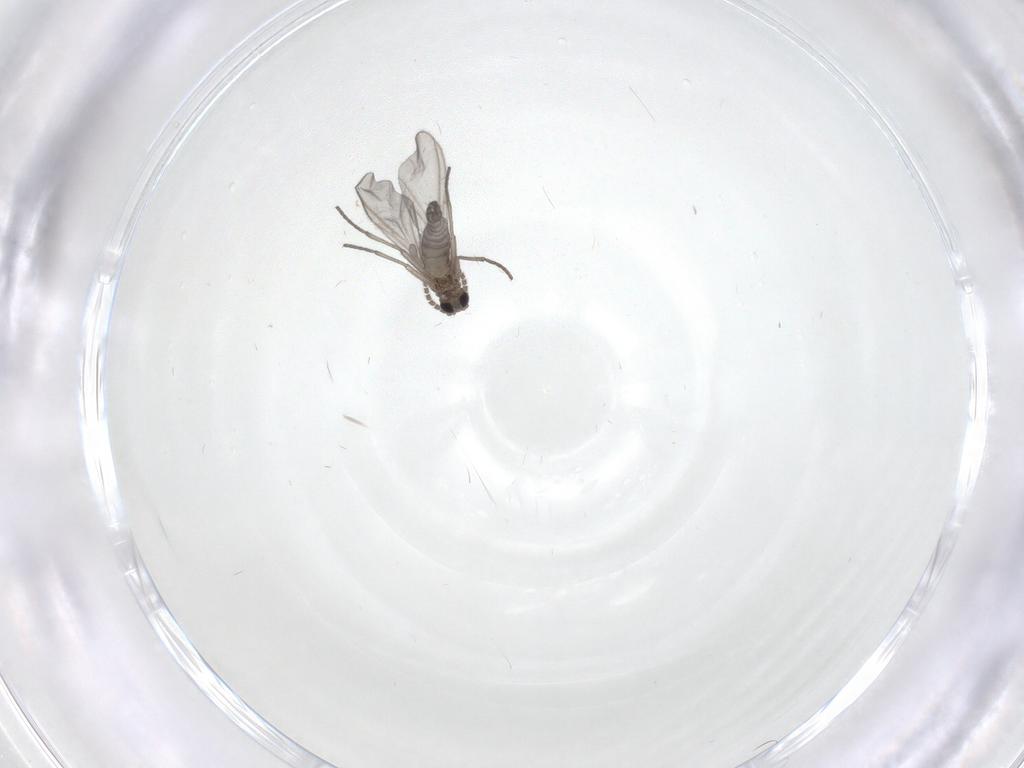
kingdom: Animalia
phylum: Arthropoda
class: Insecta
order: Diptera
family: Sciaridae
